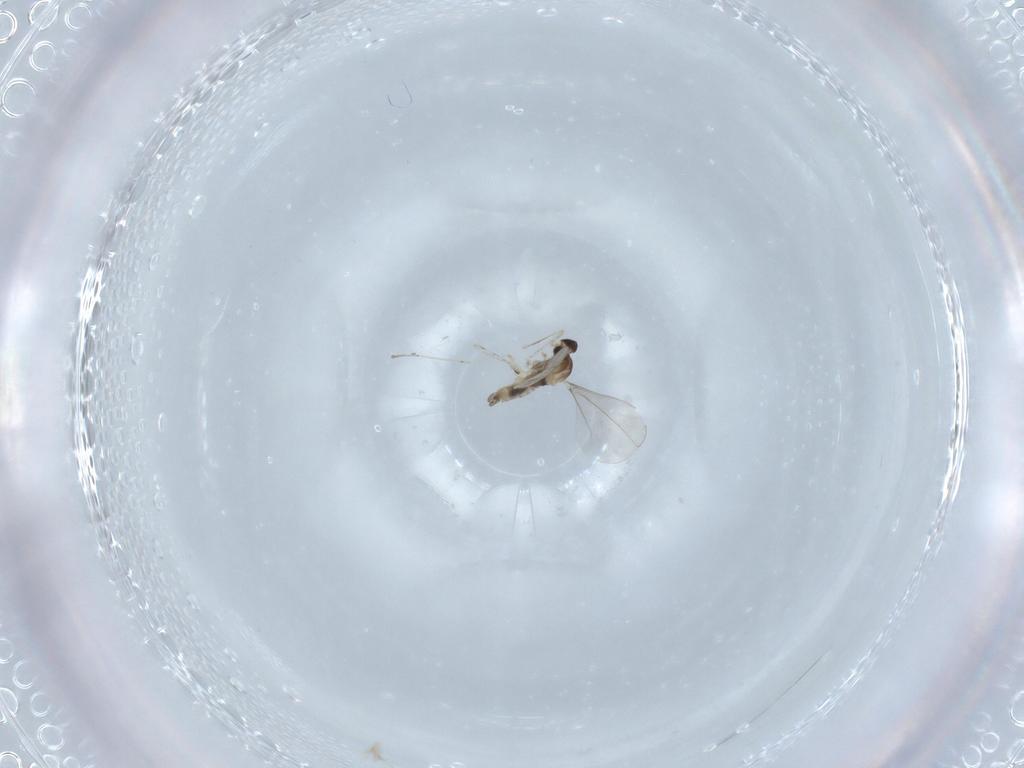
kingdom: Animalia
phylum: Arthropoda
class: Insecta
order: Diptera
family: Cecidomyiidae
